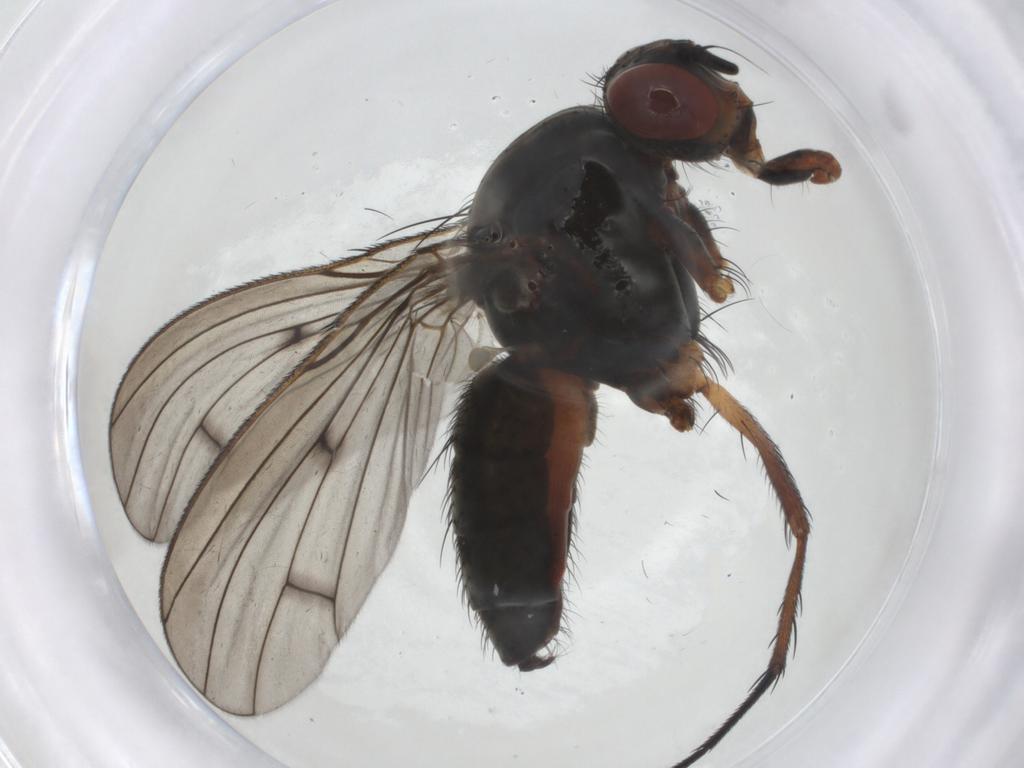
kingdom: Animalia
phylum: Arthropoda
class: Insecta
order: Diptera
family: Anthomyiidae
